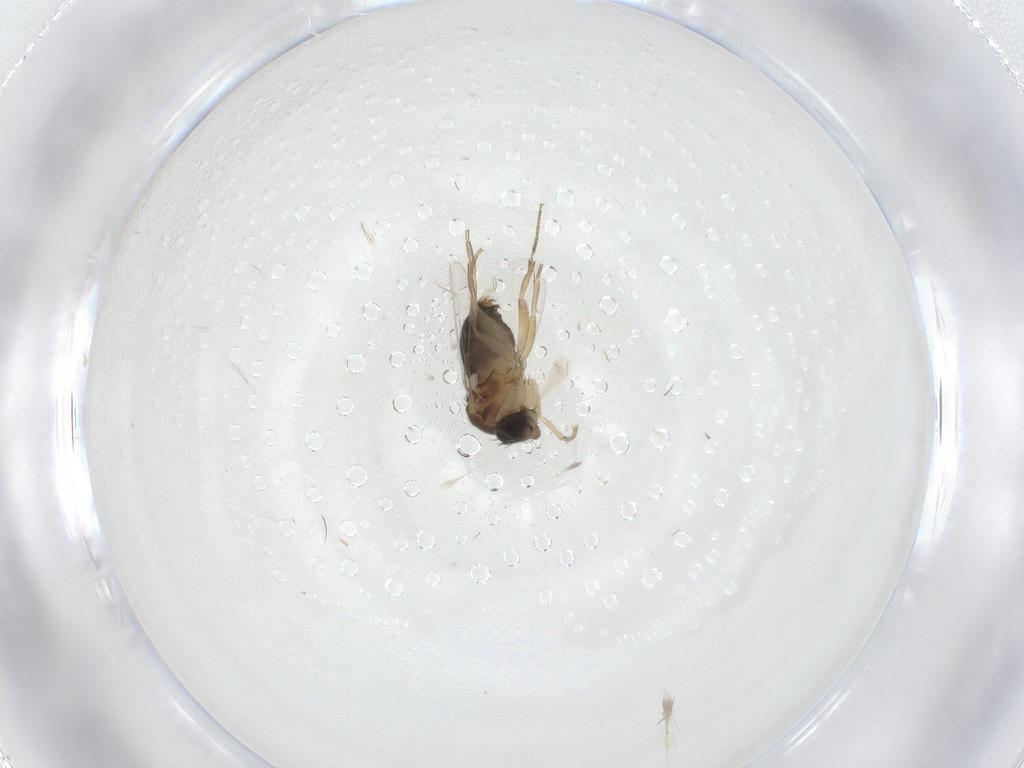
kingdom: Animalia
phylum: Arthropoda
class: Insecta
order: Diptera
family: Phoridae
